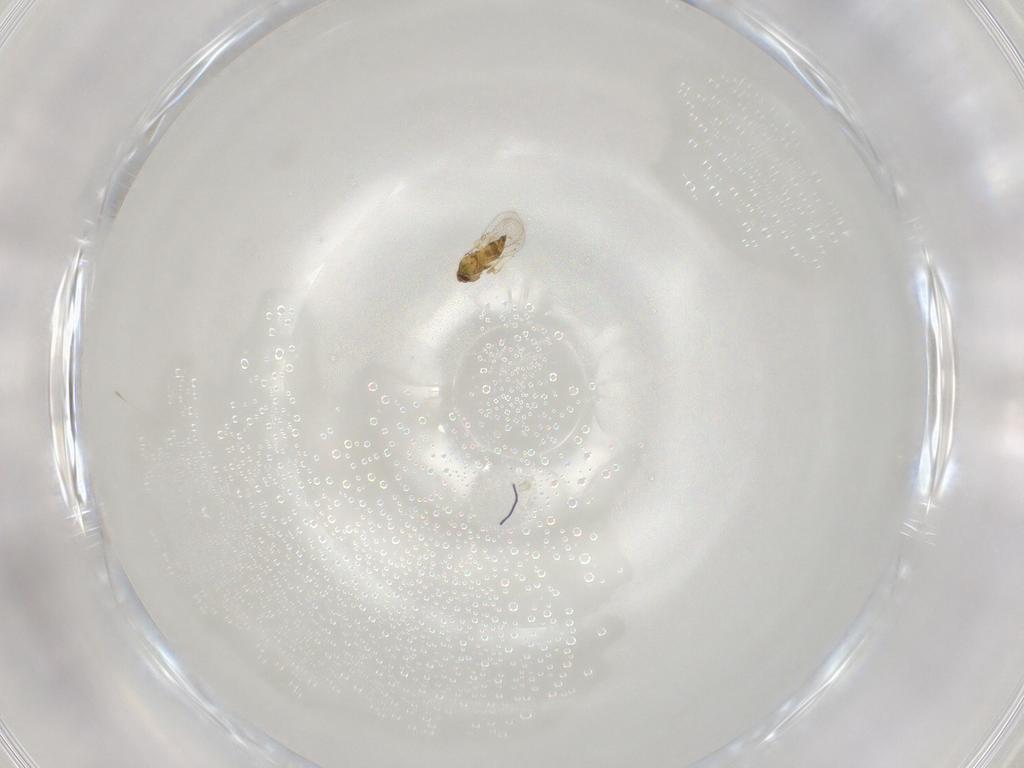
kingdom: Animalia
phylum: Arthropoda
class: Insecta
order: Hymenoptera
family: Trichogrammatidae
